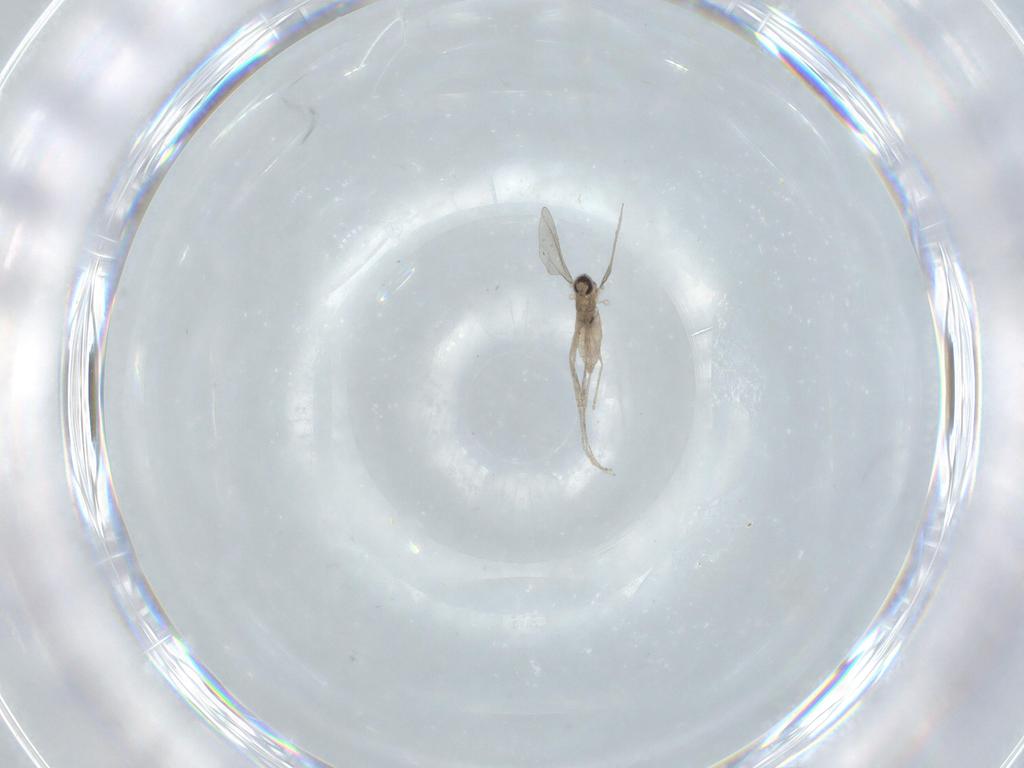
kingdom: Animalia
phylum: Arthropoda
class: Insecta
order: Diptera
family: Cecidomyiidae
